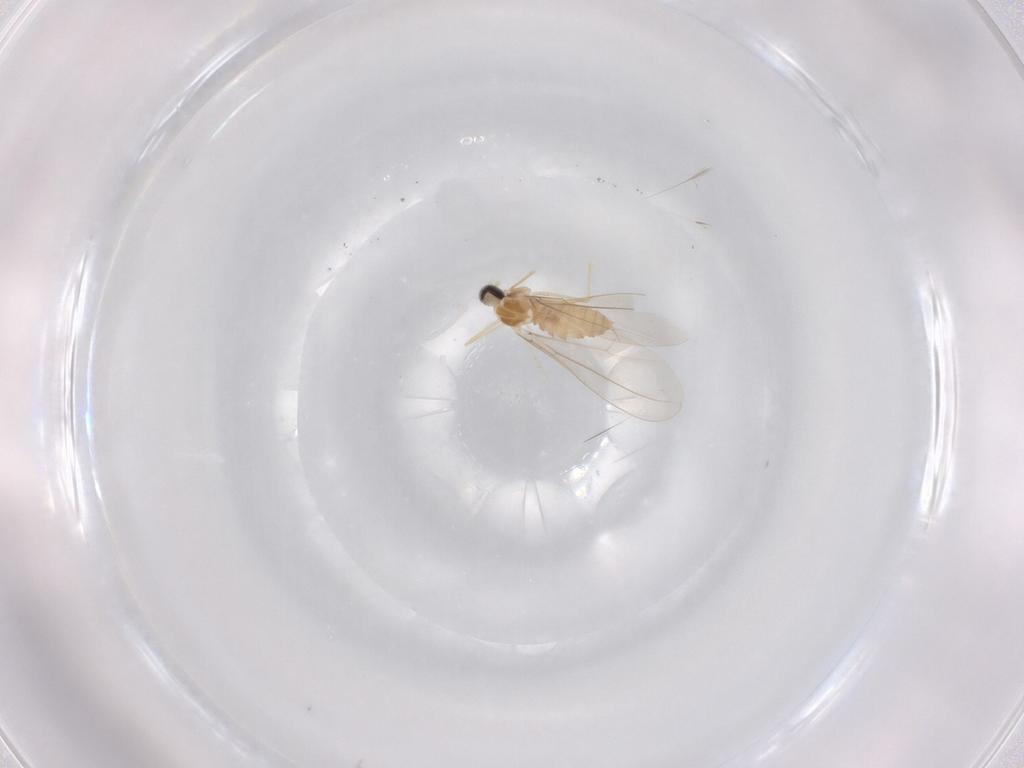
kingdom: Animalia
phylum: Arthropoda
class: Insecta
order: Diptera
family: Cecidomyiidae
